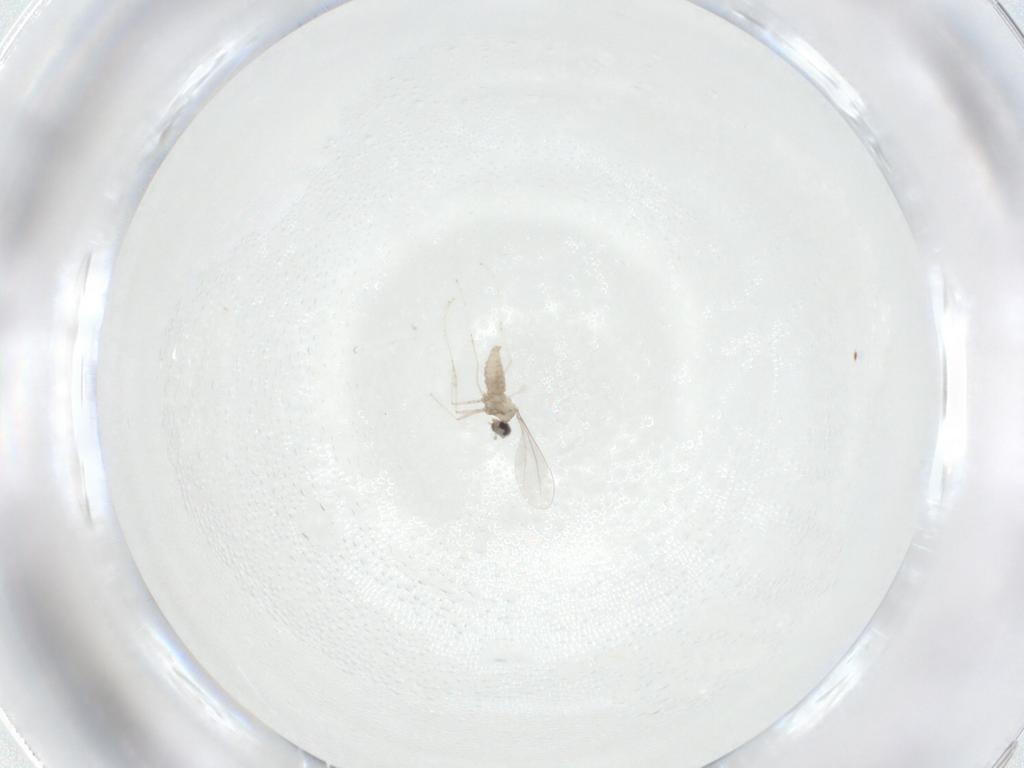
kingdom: Animalia
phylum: Arthropoda
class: Insecta
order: Diptera
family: Cecidomyiidae
